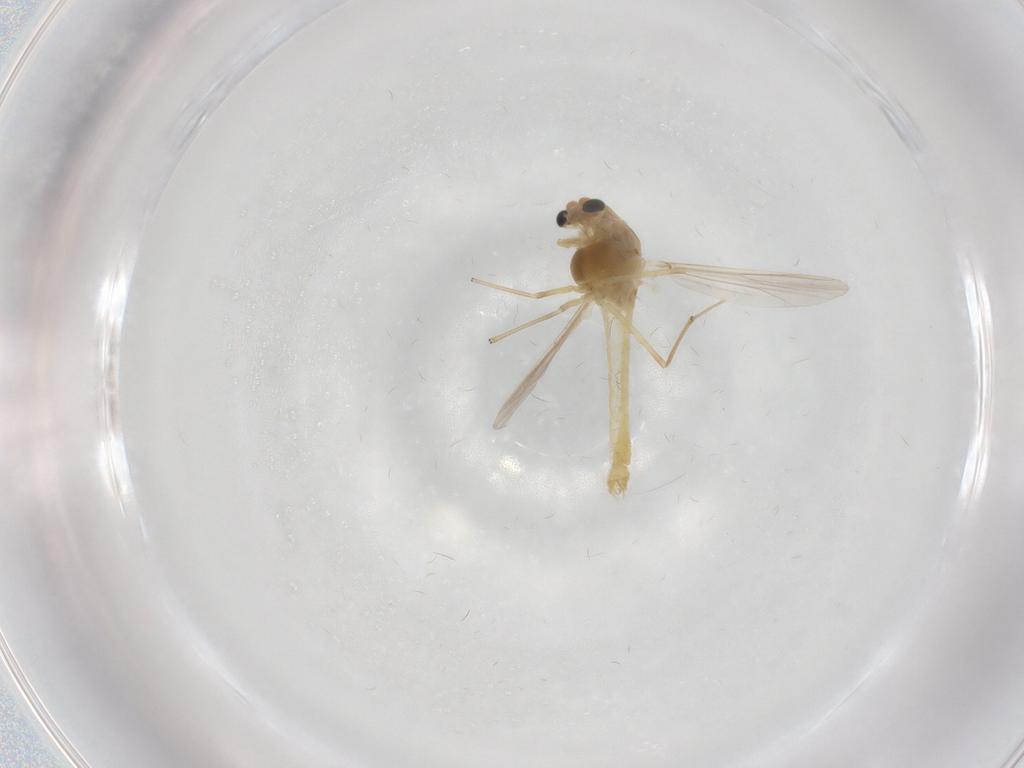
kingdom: Animalia
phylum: Arthropoda
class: Insecta
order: Diptera
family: Chironomidae
